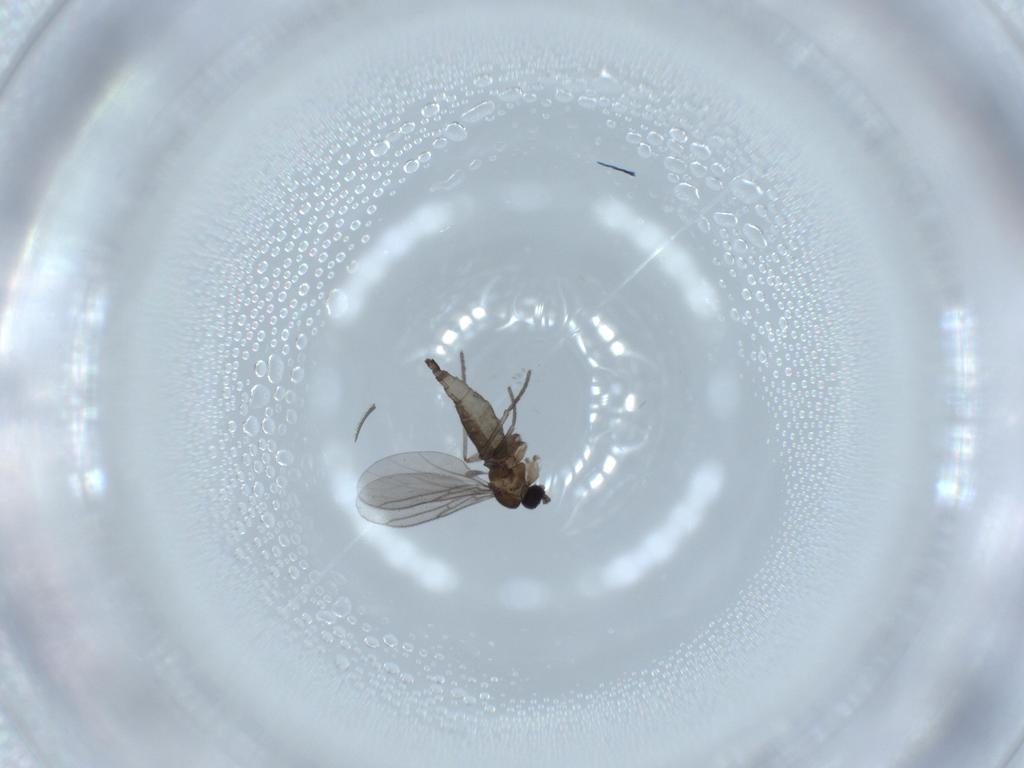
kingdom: Animalia
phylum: Arthropoda
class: Insecta
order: Diptera
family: Sciaridae
